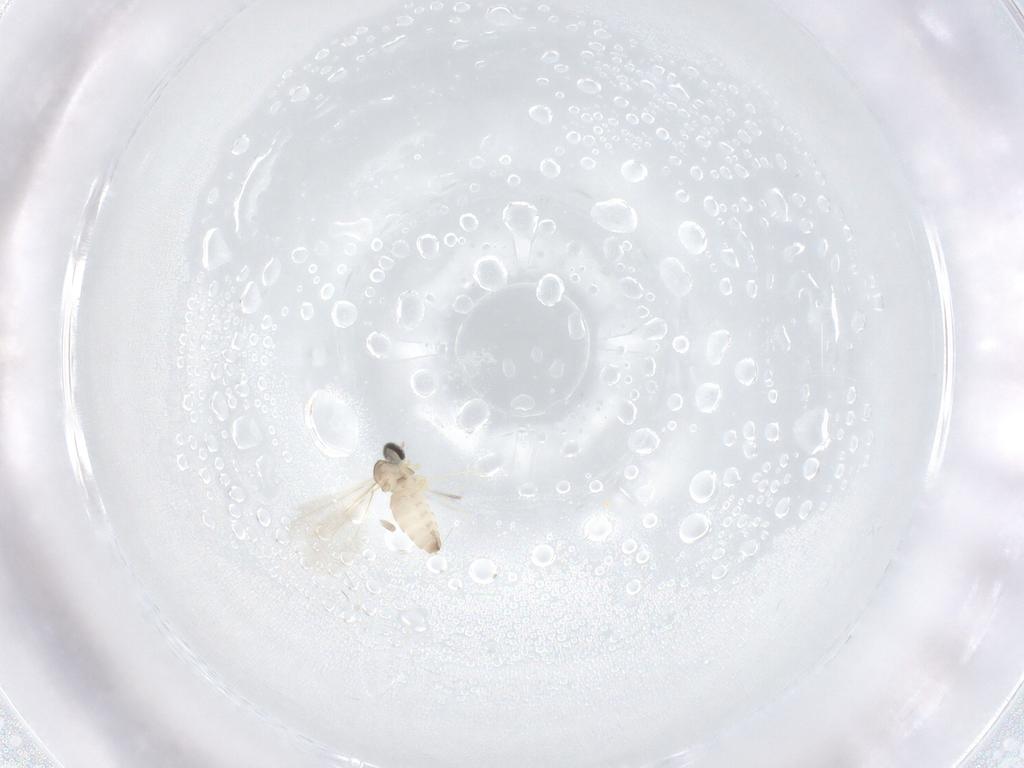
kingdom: Animalia
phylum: Arthropoda
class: Insecta
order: Diptera
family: Cecidomyiidae
